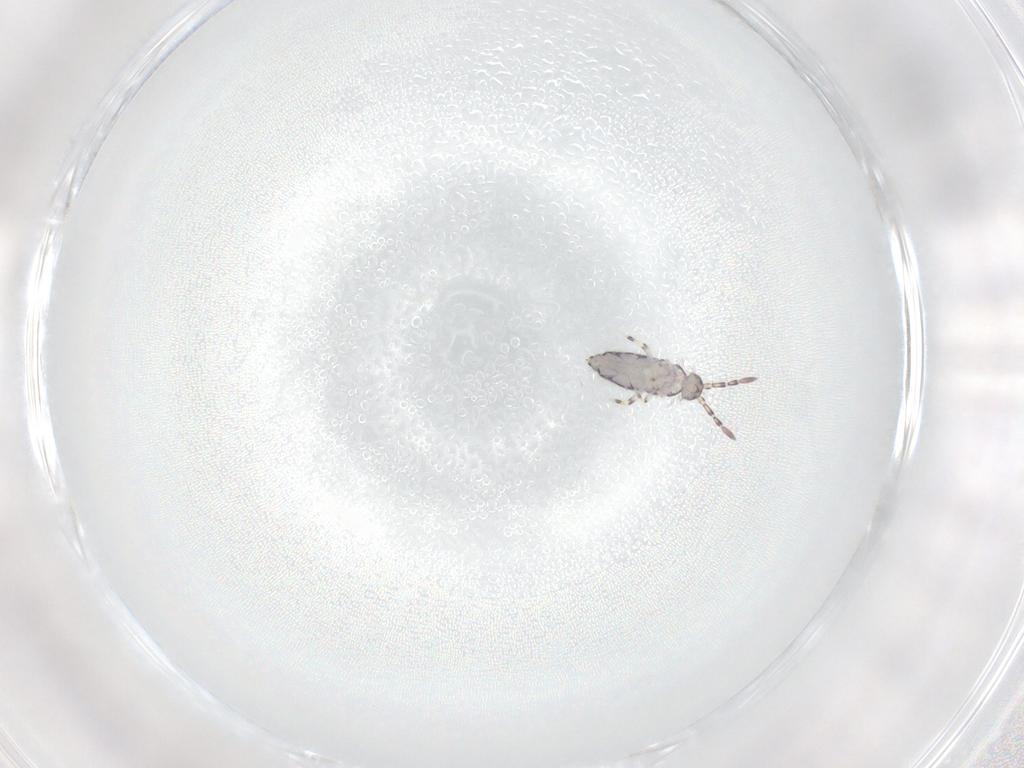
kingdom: Animalia
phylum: Arthropoda
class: Collembola
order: Entomobryomorpha
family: Entomobryidae
